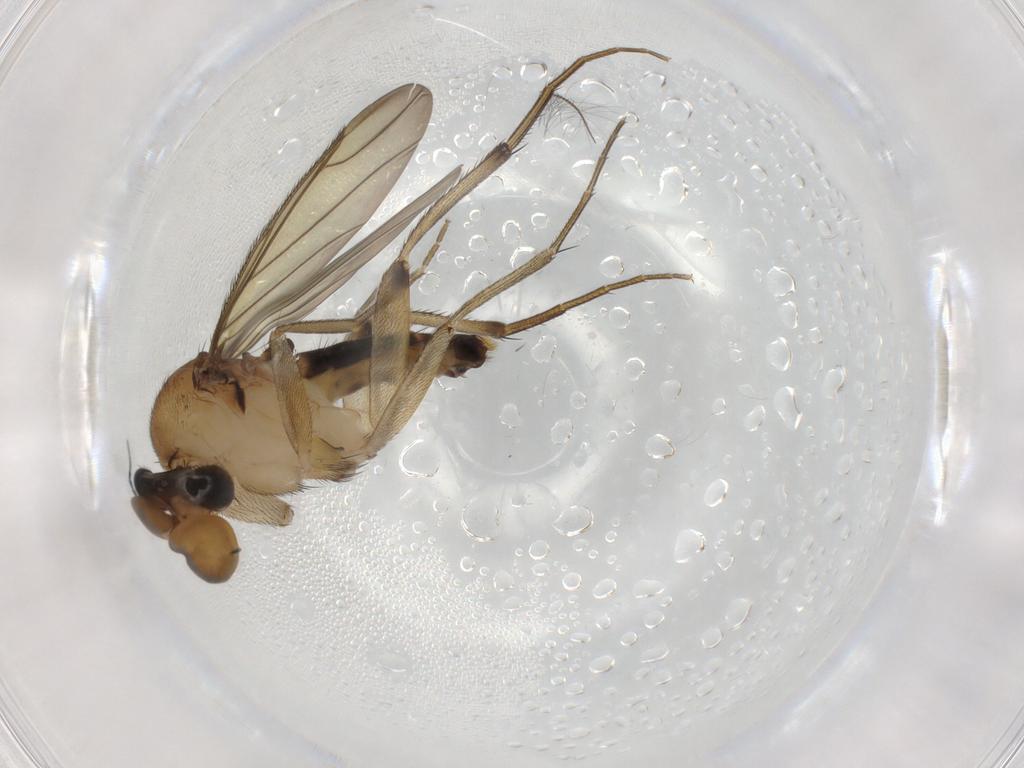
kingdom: Animalia
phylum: Arthropoda
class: Insecta
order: Diptera
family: Phoridae
